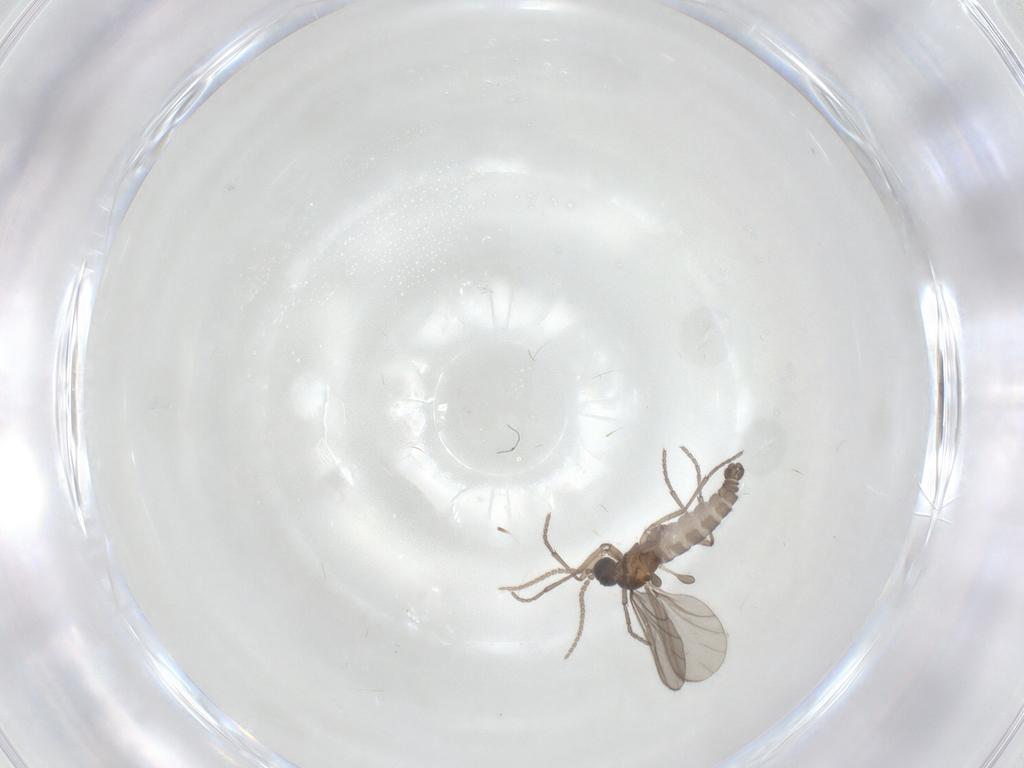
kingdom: Animalia
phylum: Arthropoda
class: Insecta
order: Diptera
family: Sciaridae
